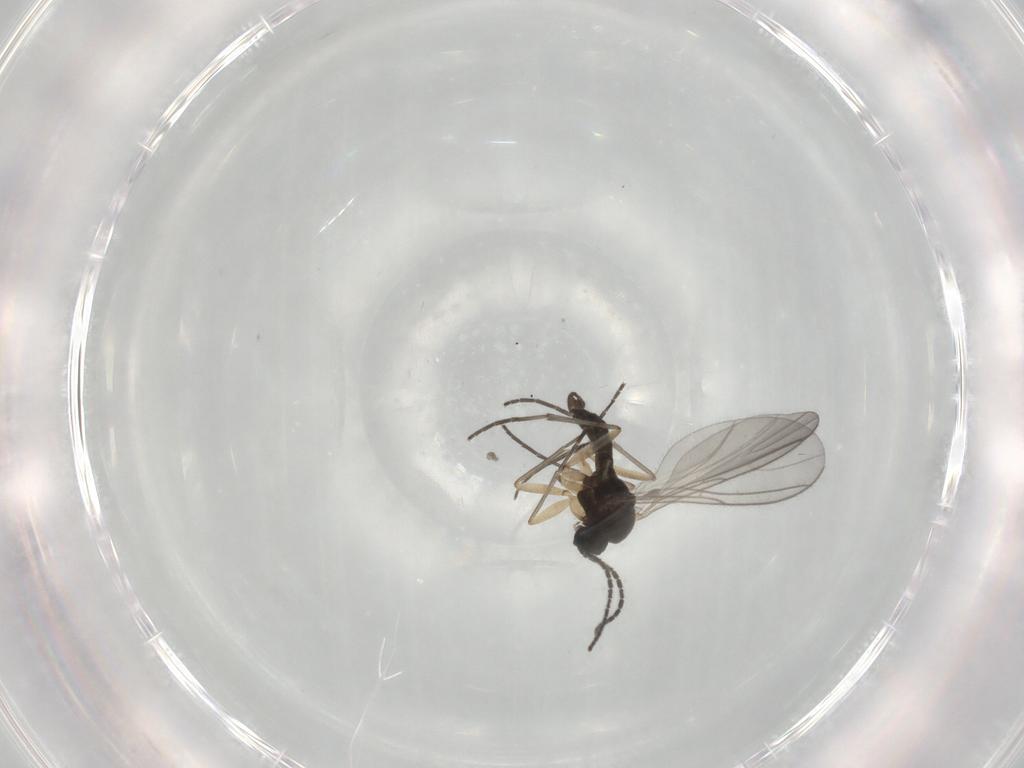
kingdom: Animalia
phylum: Arthropoda
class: Insecta
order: Diptera
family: Sciaridae
